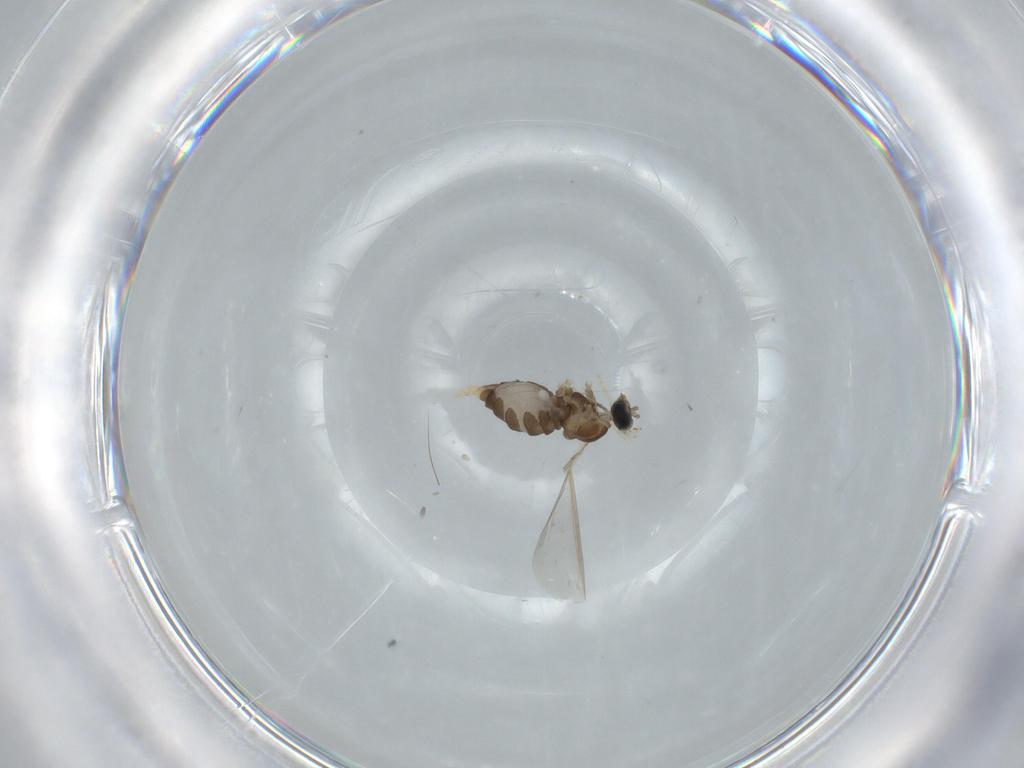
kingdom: Animalia
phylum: Arthropoda
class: Insecta
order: Diptera
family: Cecidomyiidae
